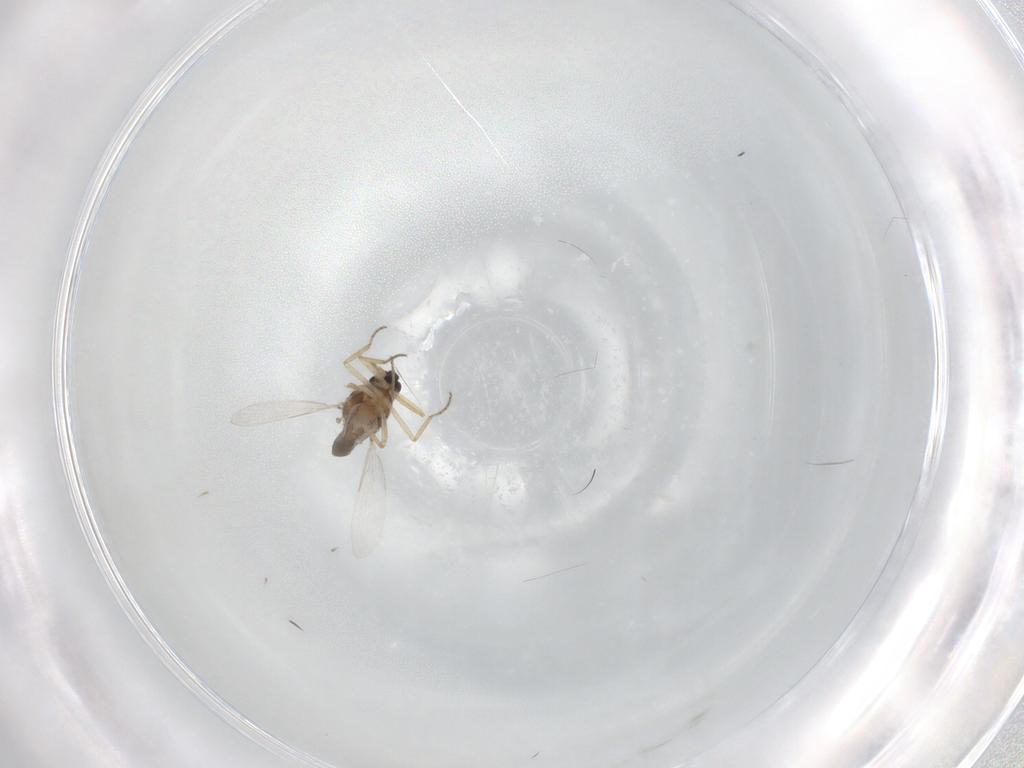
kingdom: Animalia
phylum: Arthropoda
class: Insecta
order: Diptera
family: Ceratopogonidae
